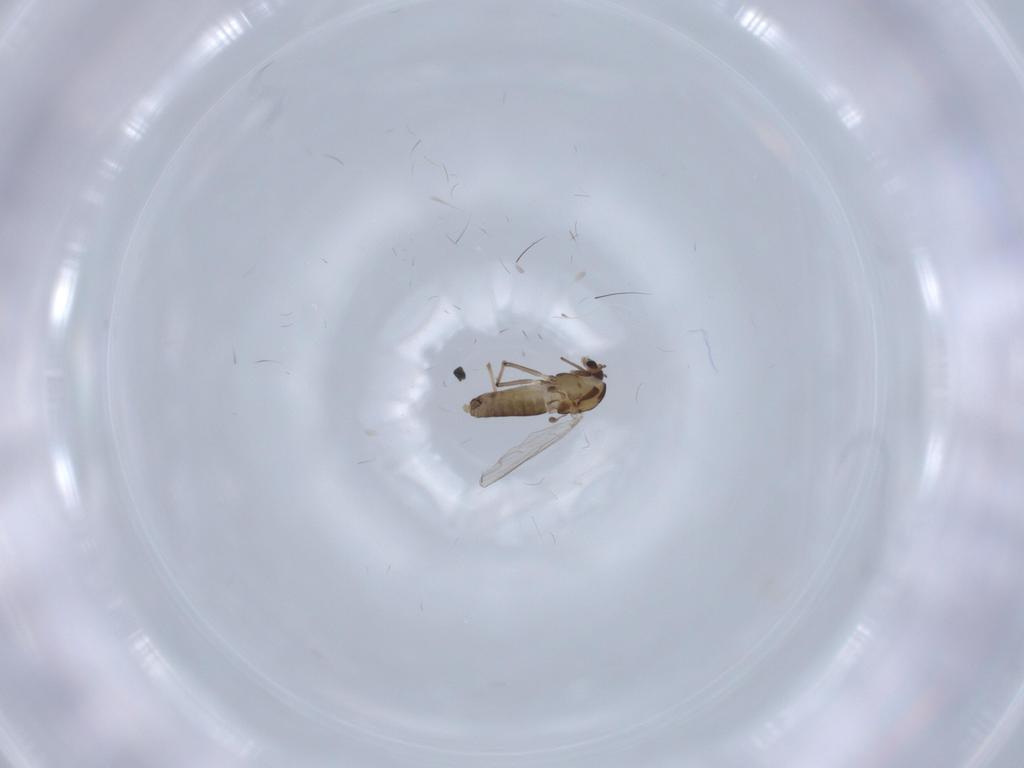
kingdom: Animalia
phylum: Arthropoda
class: Insecta
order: Diptera
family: Chironomidae
